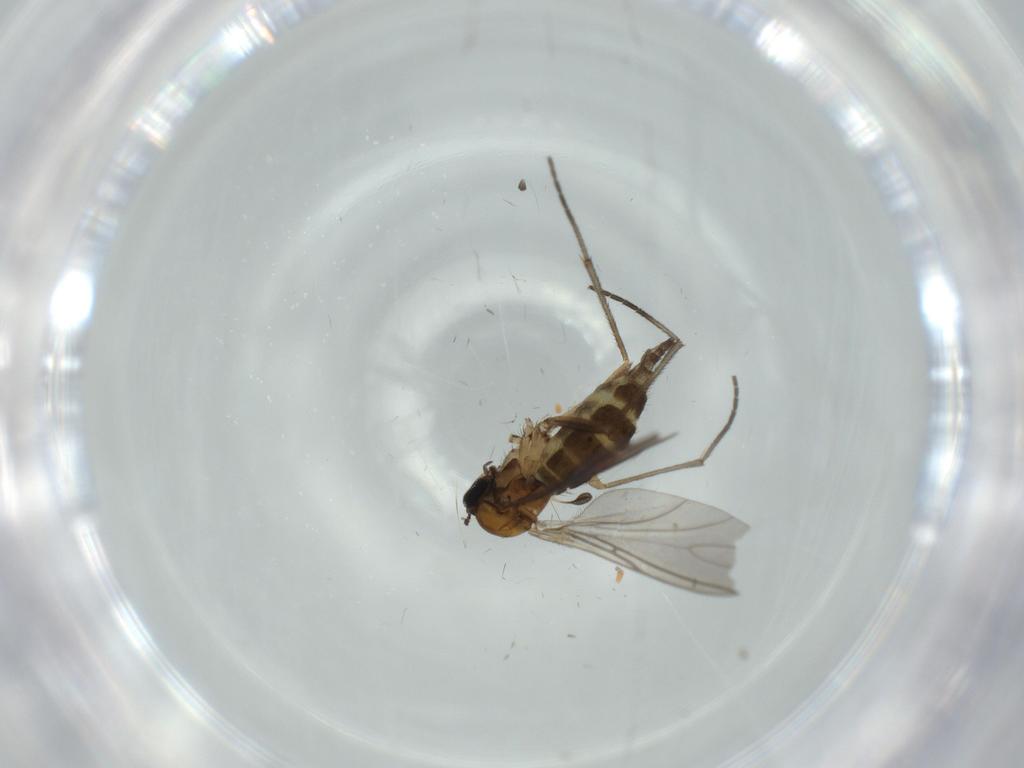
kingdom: Animalia
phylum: Arthropoda
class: Insecta
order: Diptera
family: Sciaridae
